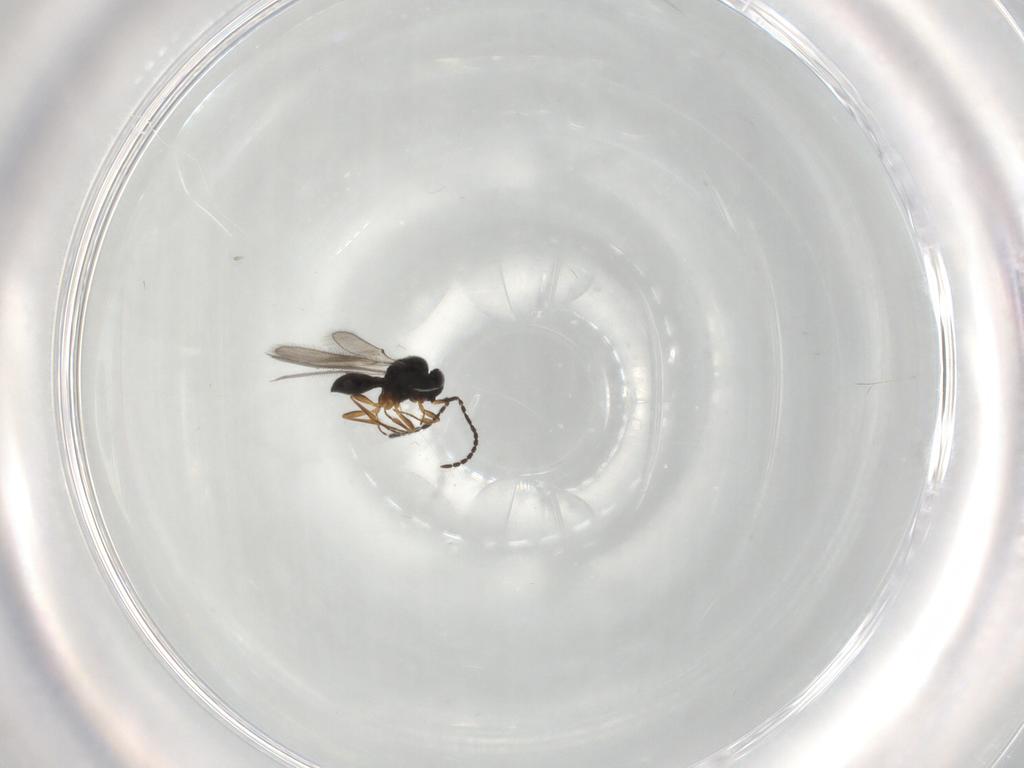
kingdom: Animalia
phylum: Arthropoda
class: Insecta
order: Hymenoptera
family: Scelionidae
